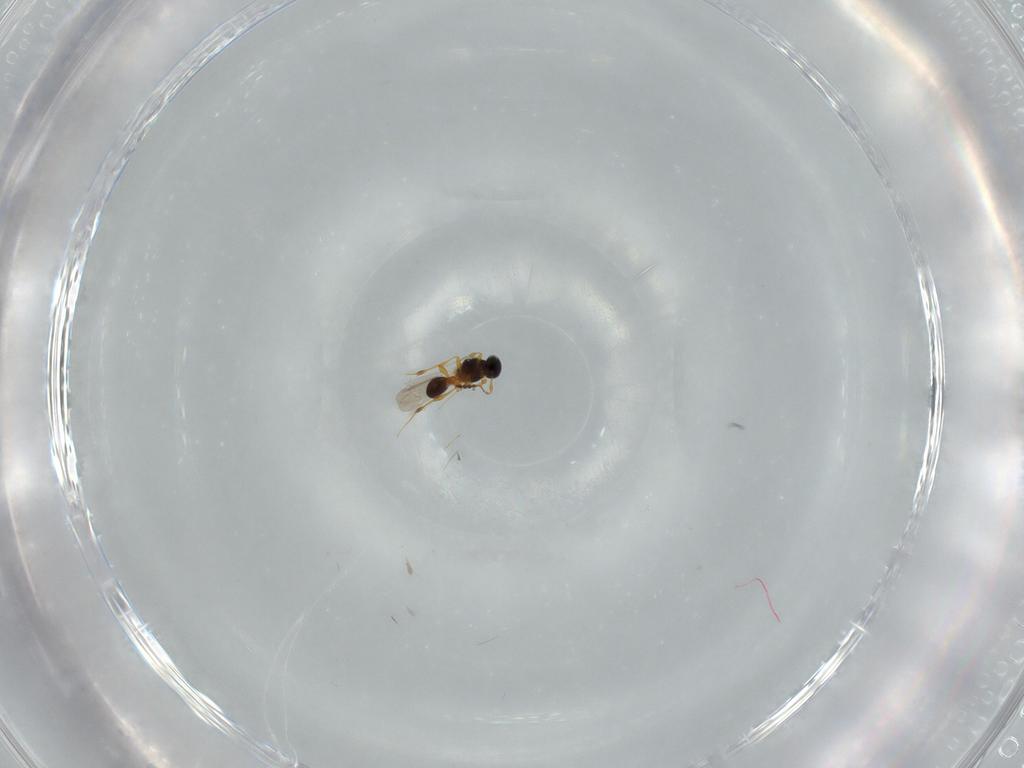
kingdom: Animalia
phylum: Arthropoda
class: Insecta
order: Hymenoptera
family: Platygastridae
